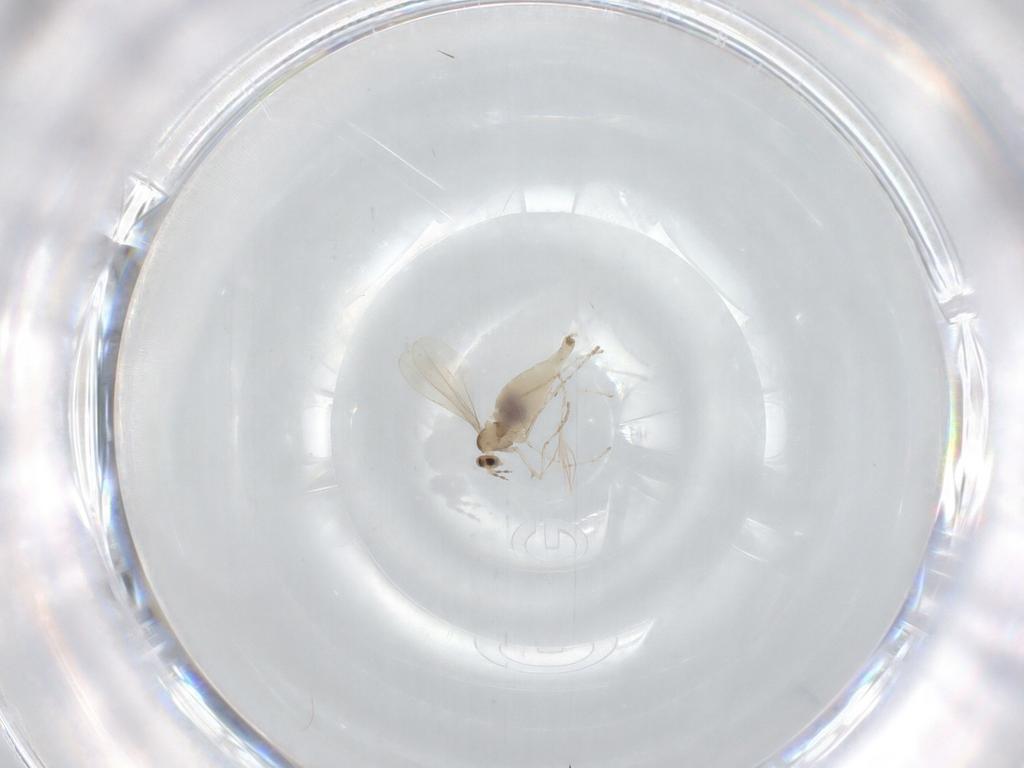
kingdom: Animalia
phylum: Arthropoda
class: Insecta
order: Diptera
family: Cecidomyiidae
